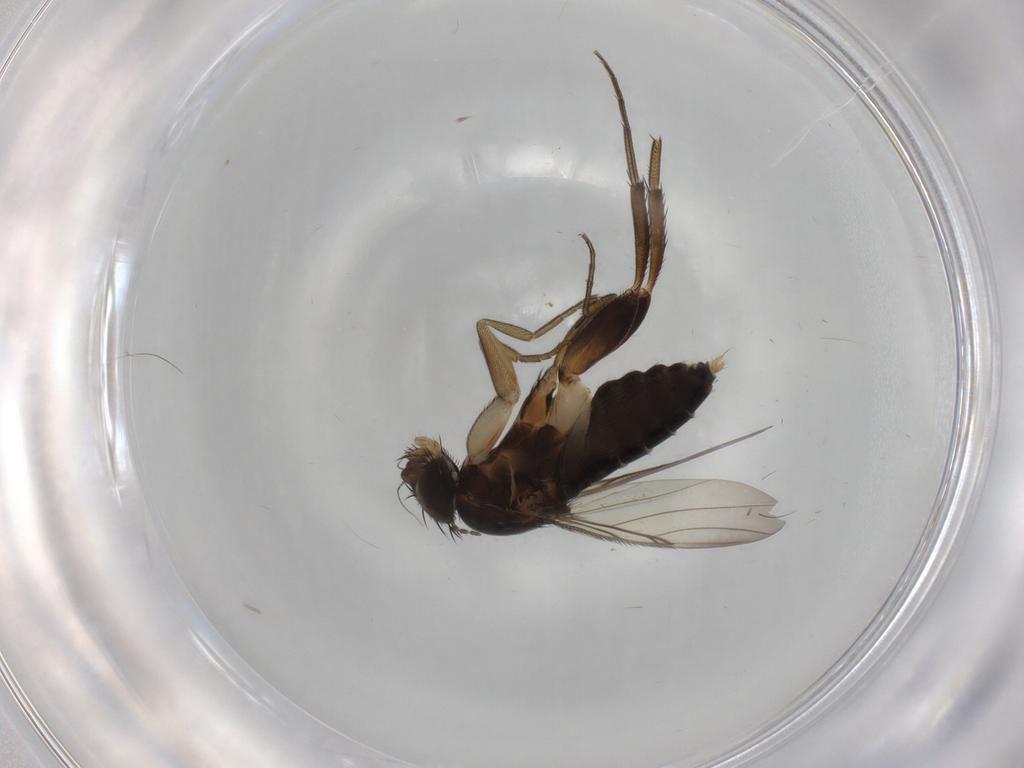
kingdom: Animalia
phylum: Arthropoda
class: Insecta
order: Diptera
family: Phoridae
